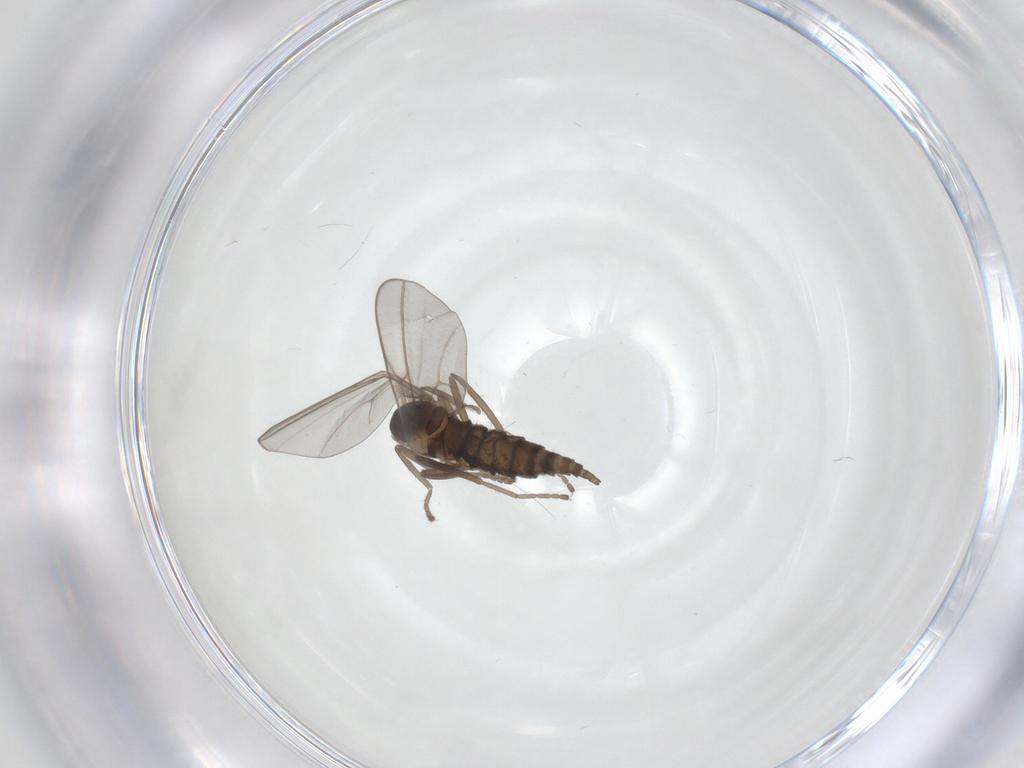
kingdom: Animalia
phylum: Arthropoda
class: Insecta
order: Diptera
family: Cecidomyiidae
